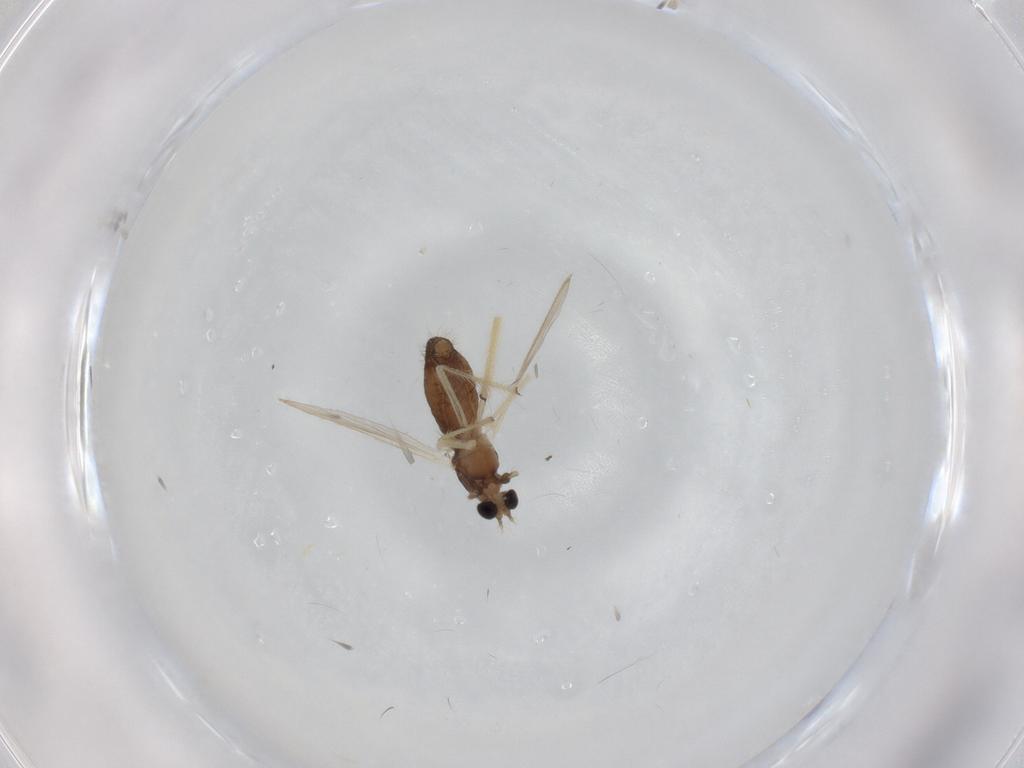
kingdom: Animalia
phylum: Arthropoda
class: Insecta
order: Diptera
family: Chironomidae
